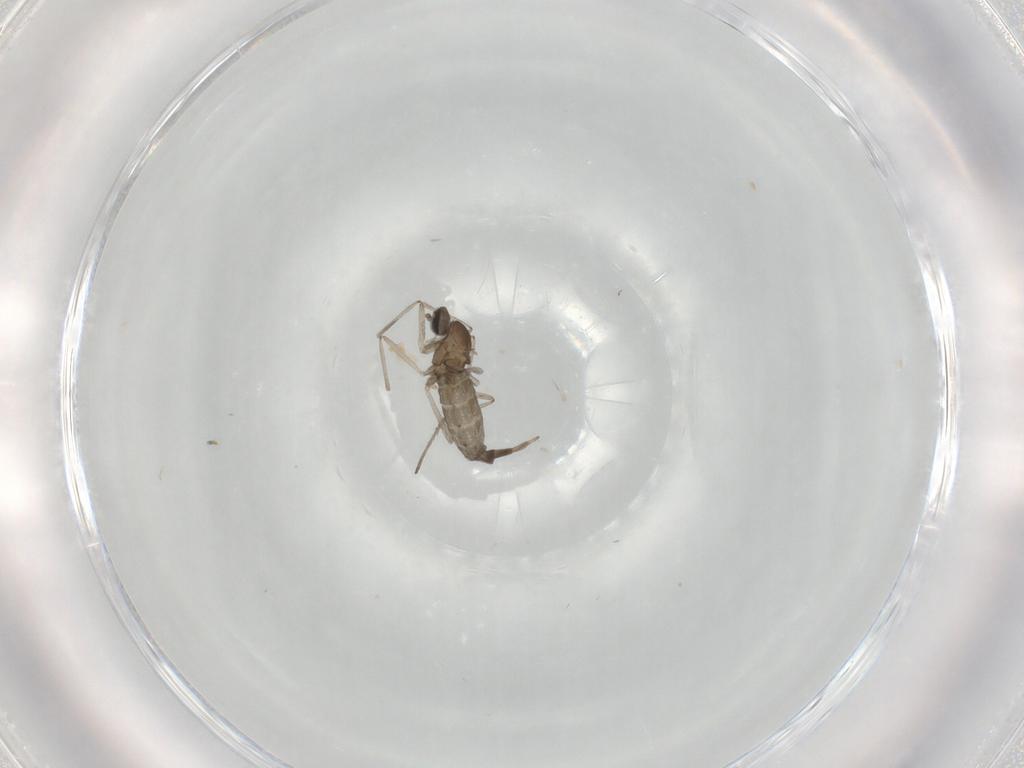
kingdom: Animalia
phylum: Arthropoda
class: Insecta
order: Diptera
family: Cecidomyiidae
